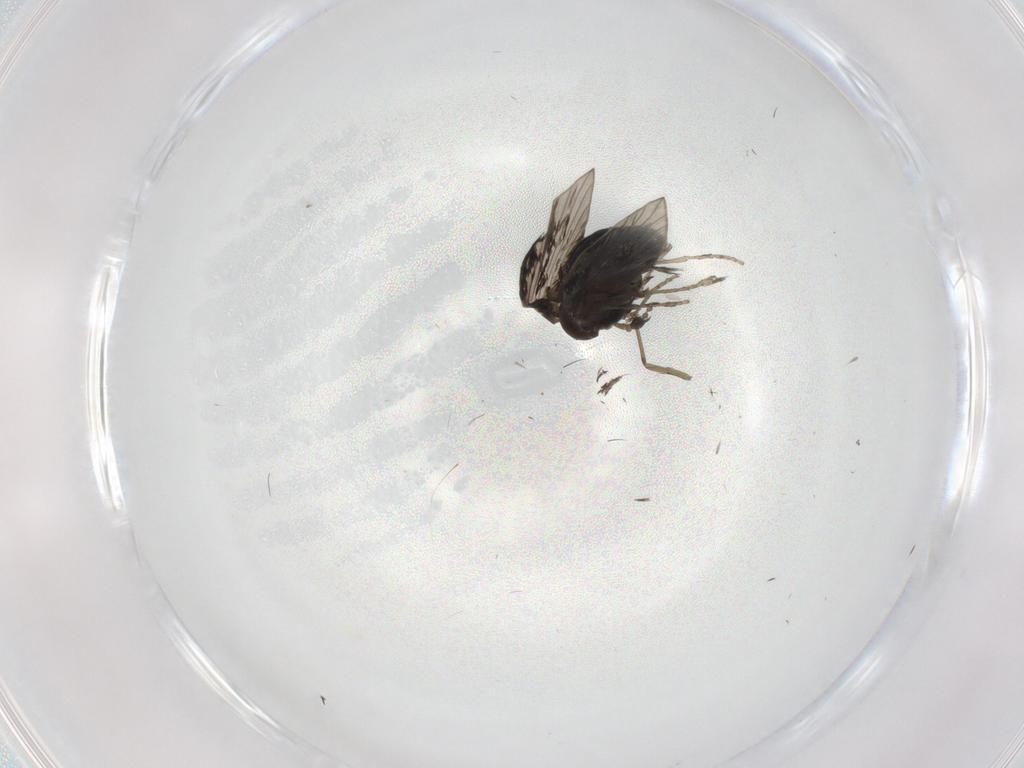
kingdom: Animalia
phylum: Arthropoda
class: Insecta
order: Diptera
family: Psychodidae
